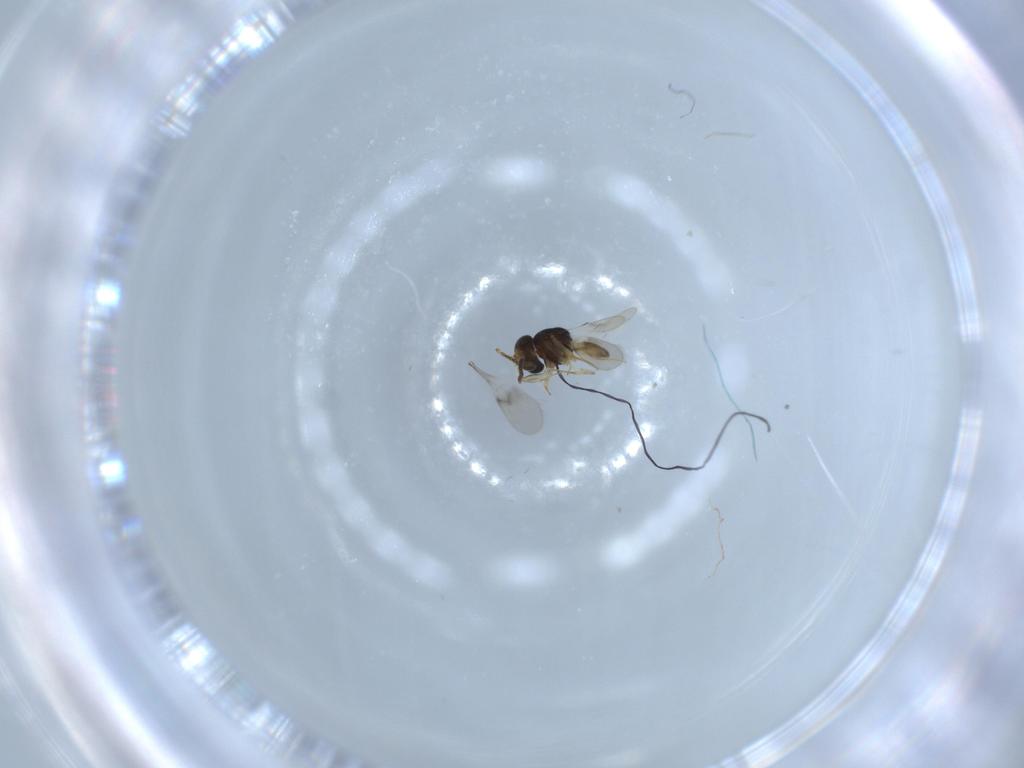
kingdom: Animalia
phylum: Arthropoda
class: Insecta
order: Hymenoptera
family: Scelionidae
